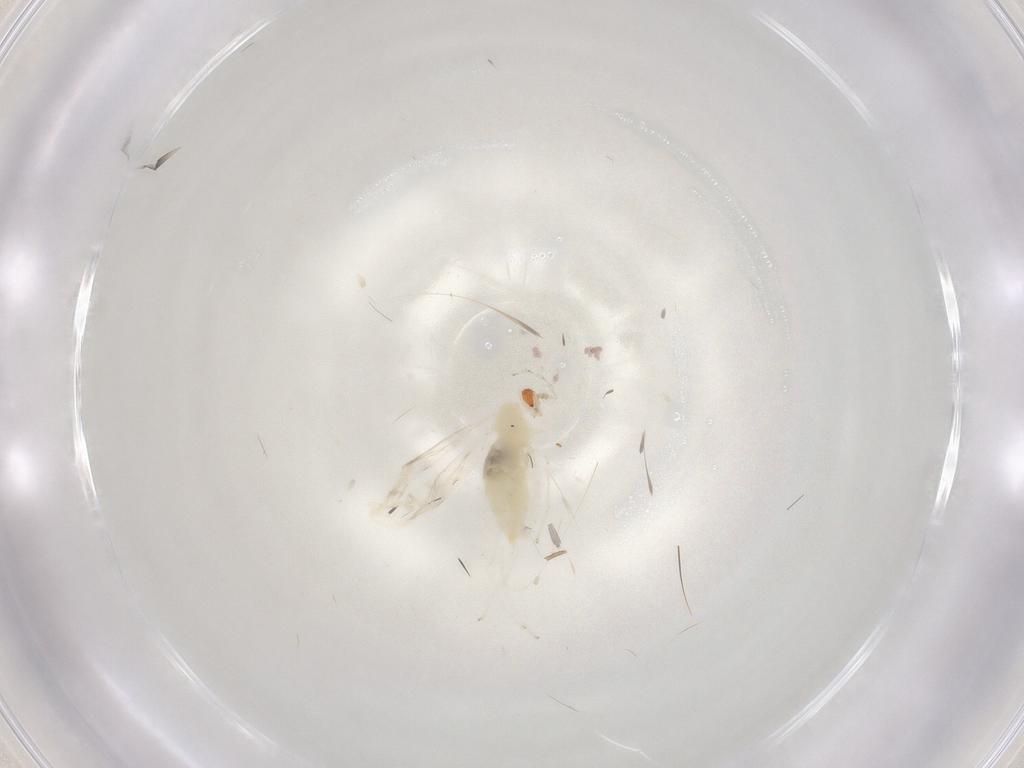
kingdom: Animalia
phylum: Arthropoda
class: Insecta
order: Diptera
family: Cecidomyiidae
